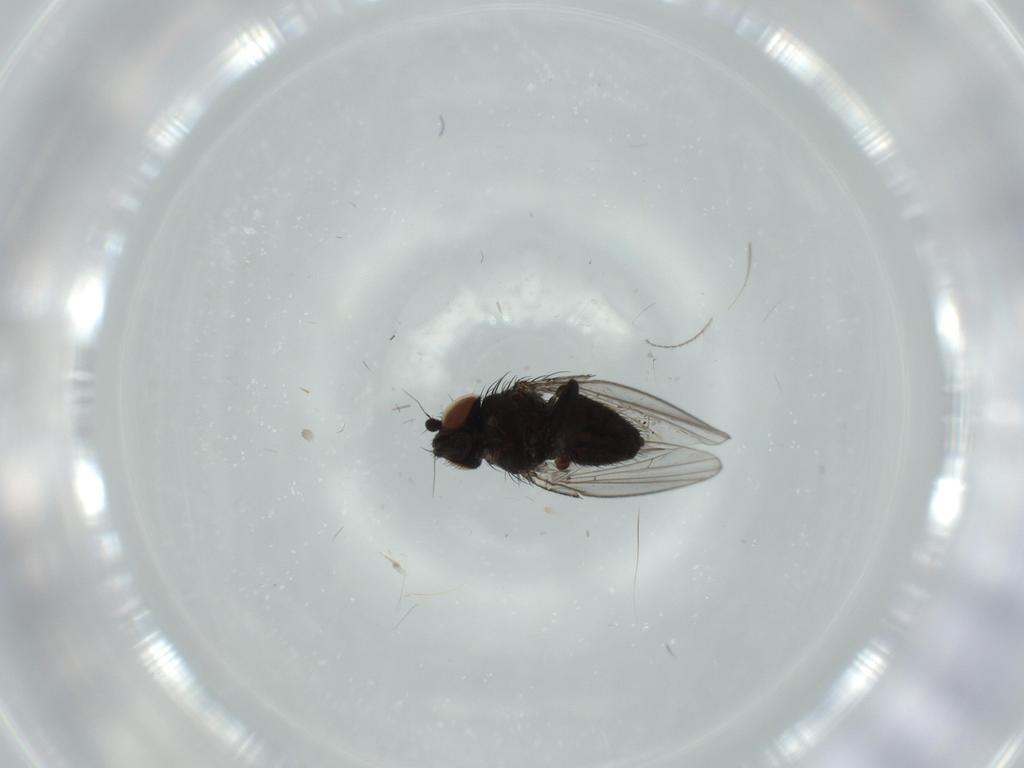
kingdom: Animalia
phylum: Arthropoda
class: Insecta
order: Diptera
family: Milichiidae
